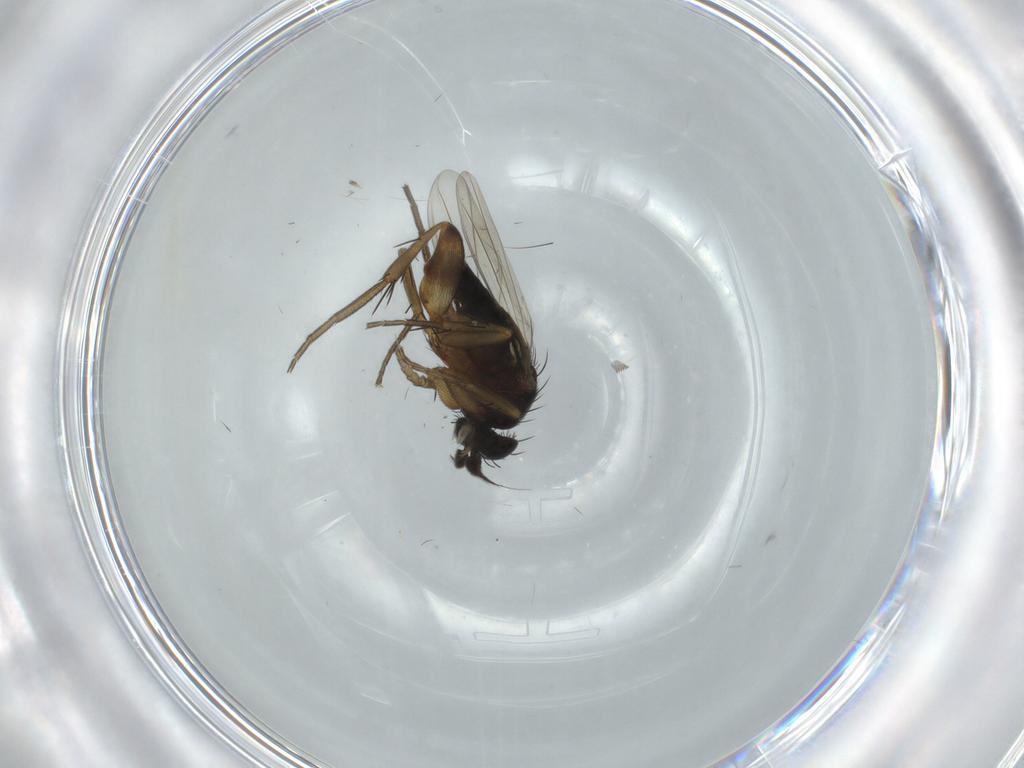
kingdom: Animalia
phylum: Arthropoda
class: Insecta
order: Diptera
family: Phoridae
